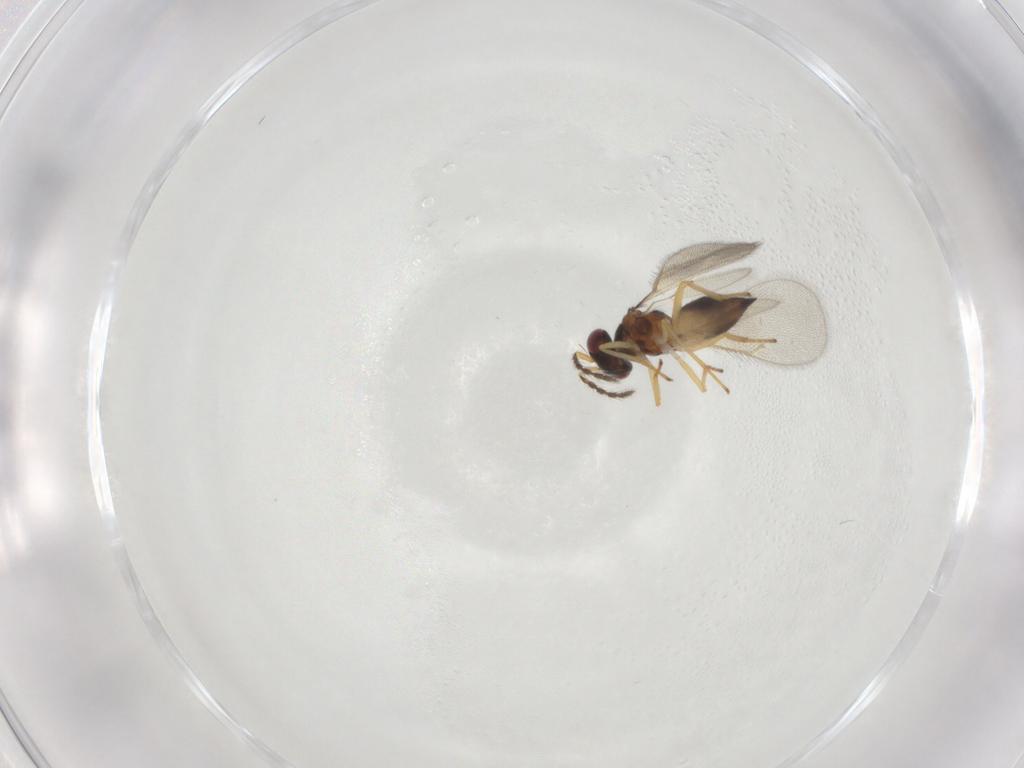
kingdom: Animalia
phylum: Arthropoda
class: Insecta
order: Hymenoptera
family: Eulophidae
